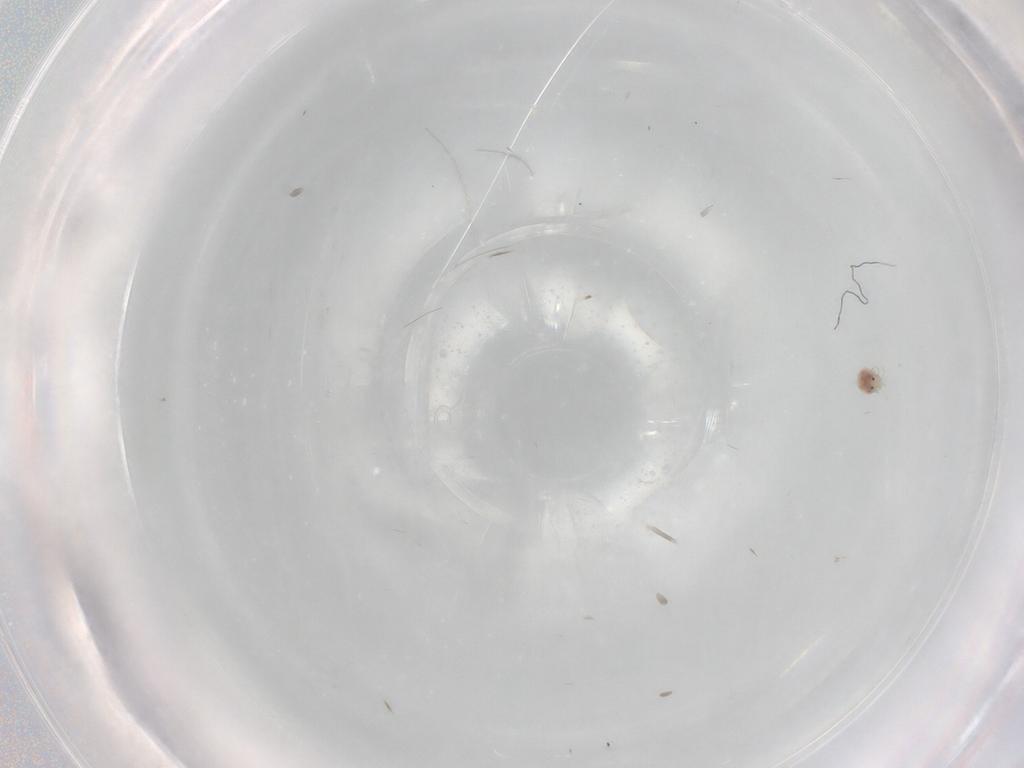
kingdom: Animalia
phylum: Arthropoda
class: Arachnida
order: Trombidiformes
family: Hygrobatidae
